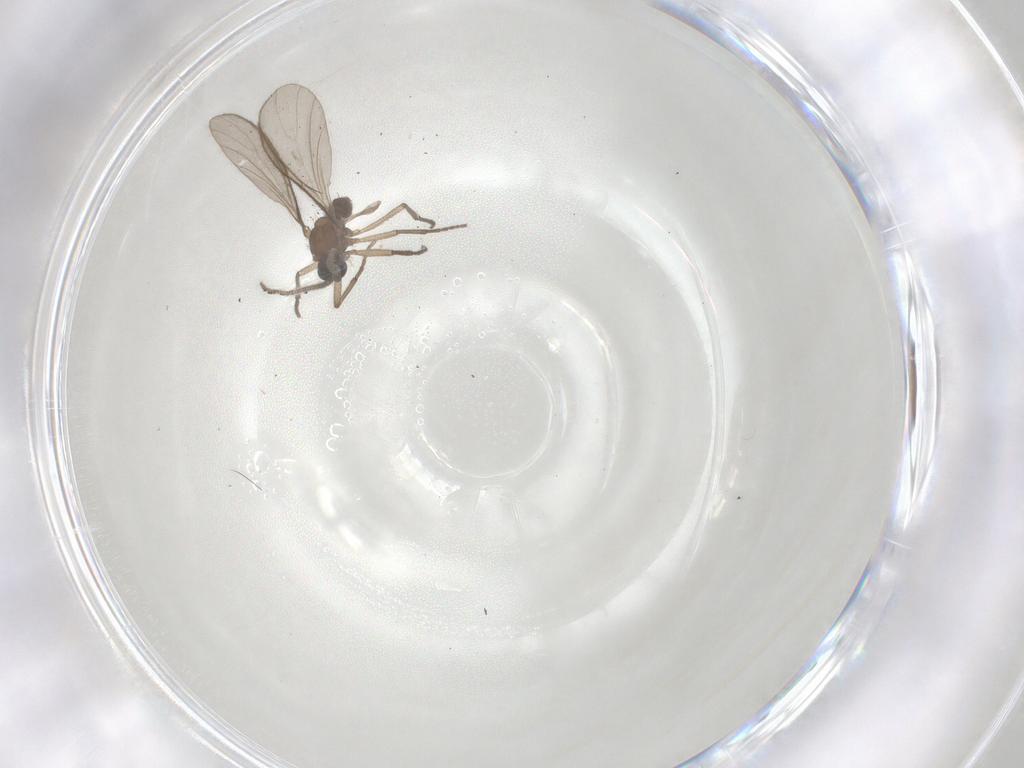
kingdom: Animalia
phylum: Arthropoda
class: Insecta
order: Diptera
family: Sciaridae
